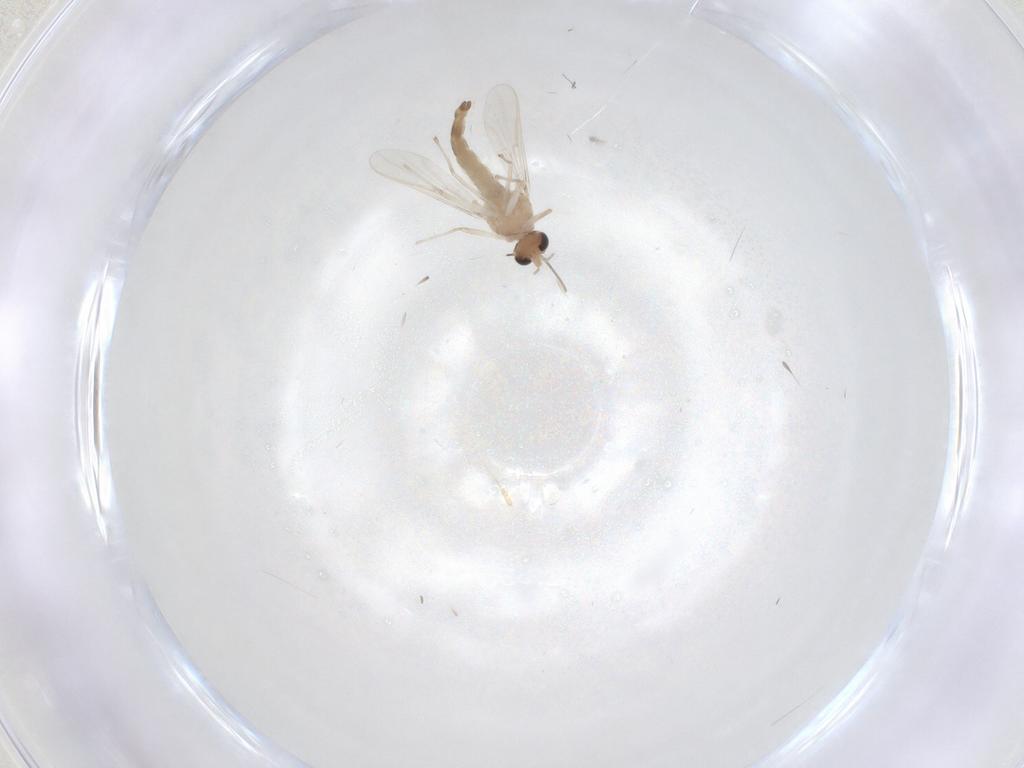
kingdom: Animalia
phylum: Arthropoda
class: Insecta
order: Diptera
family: Chironomidae
